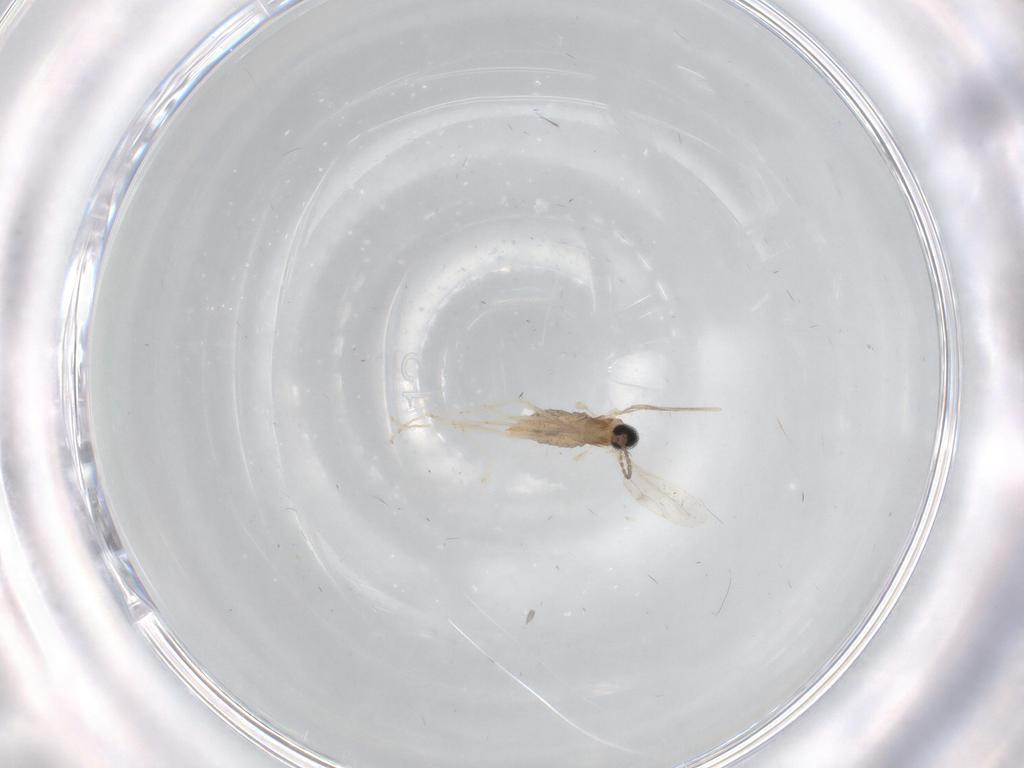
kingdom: Animalia
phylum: Arthropoda
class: Insecta
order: Diptera
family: Cecidomyiidae
